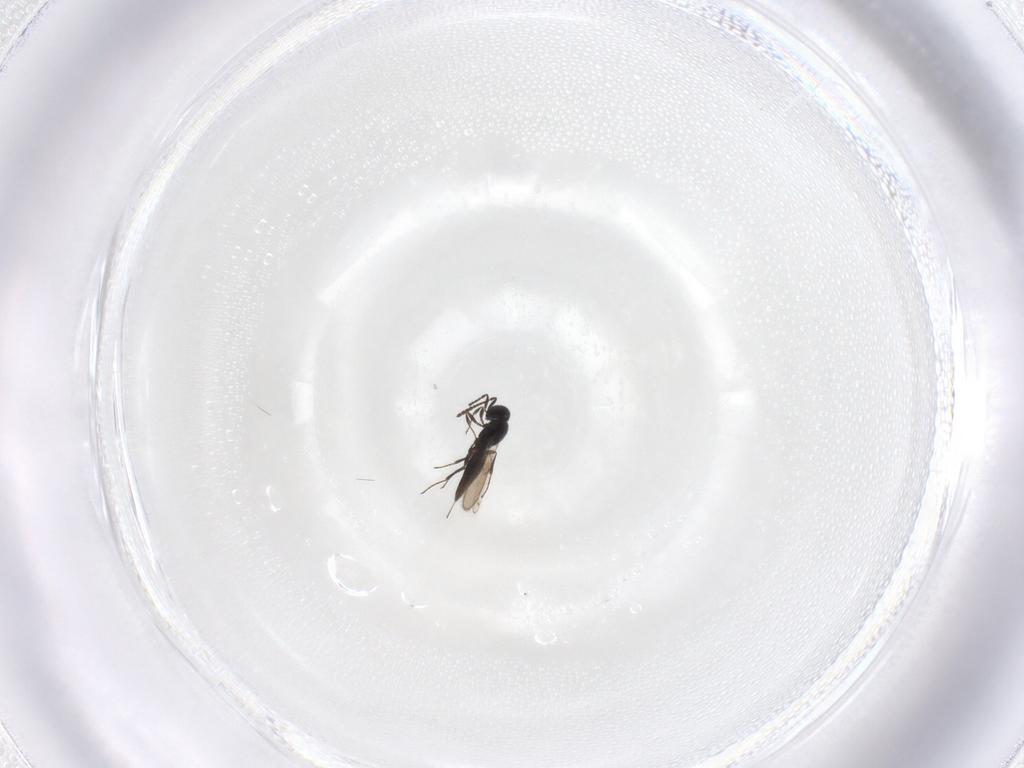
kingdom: Animalia
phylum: Arthropoda
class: Insecta
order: Hymenoptera
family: Scelionidae
